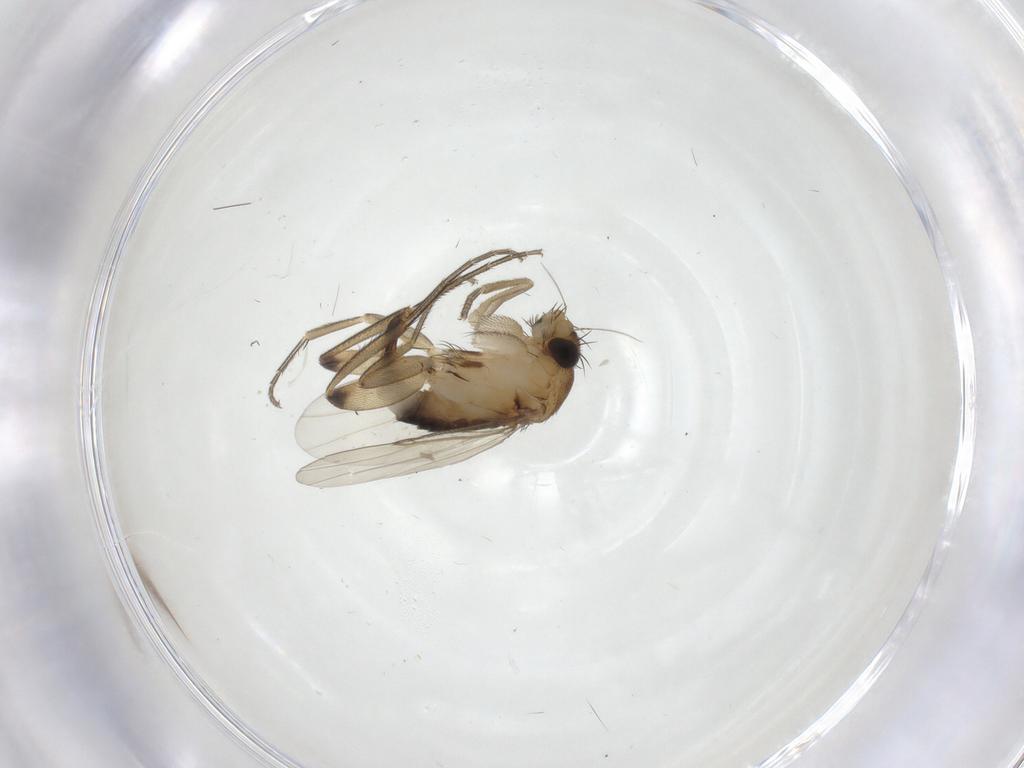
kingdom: Animalia
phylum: Arthropoda
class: Insecta
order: Diptera
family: Phoridae
